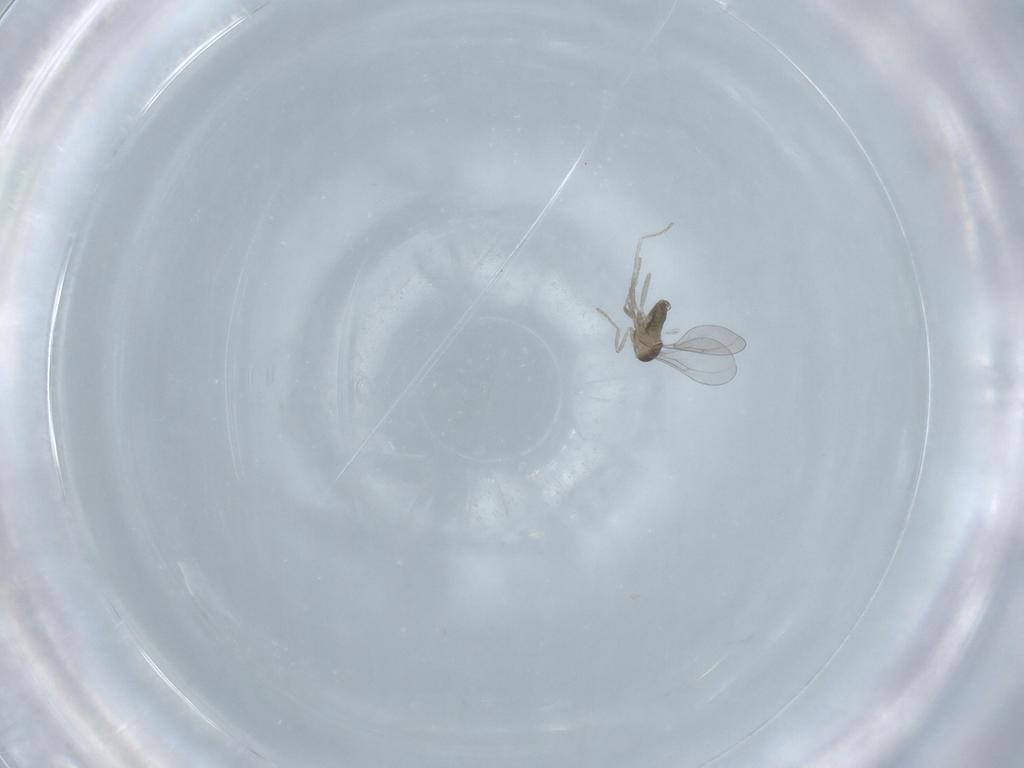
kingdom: Animalia
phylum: Arthropoda
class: Insecta
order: Diptera
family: Cecidomyiidae
